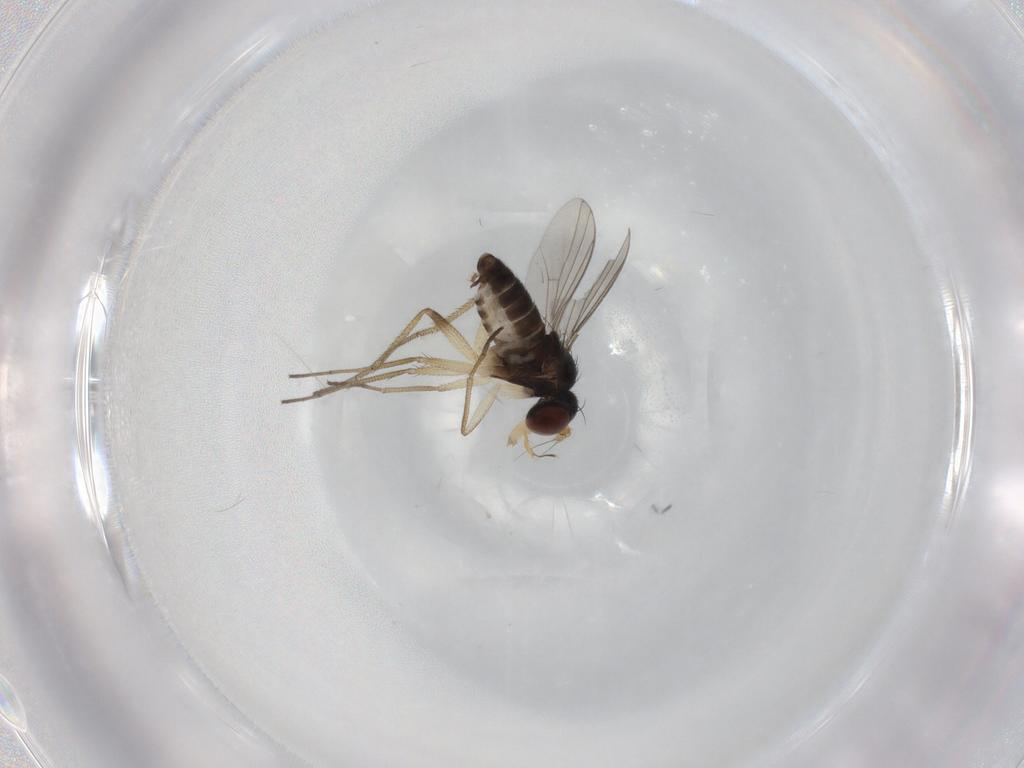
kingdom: Animalia
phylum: Arthropoda
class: Insecta
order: Diptera
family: Dolichopodidae
